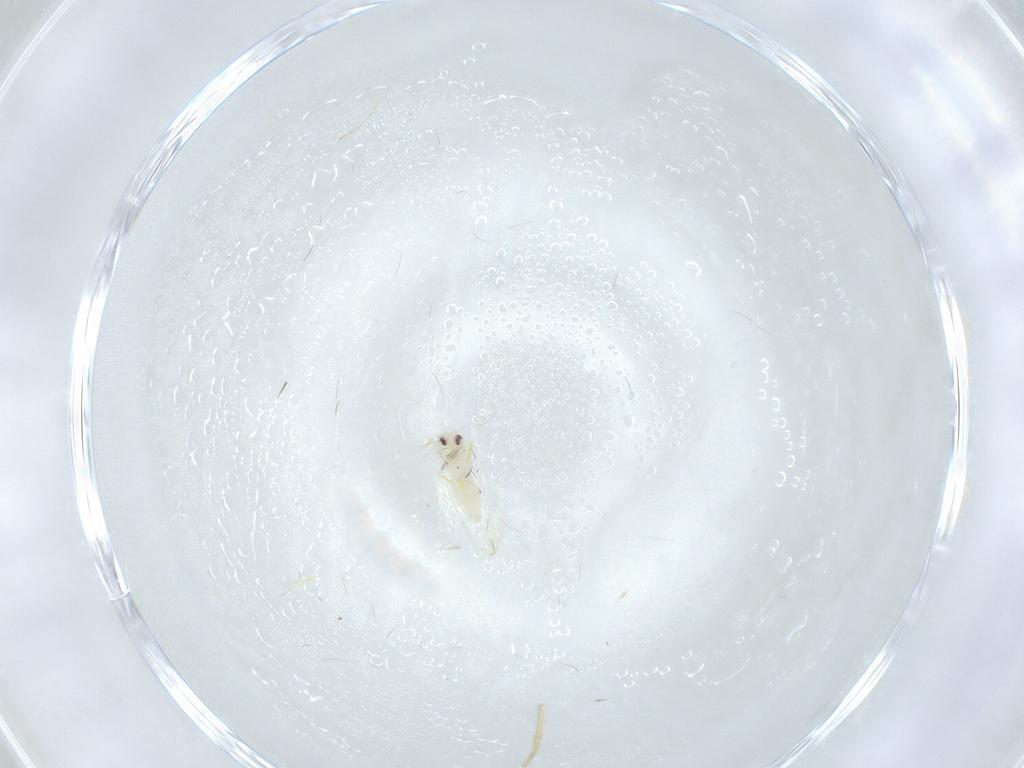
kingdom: Animalia
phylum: Arthropoda
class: Insecta
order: Hemiptera
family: Aleyrodidae
